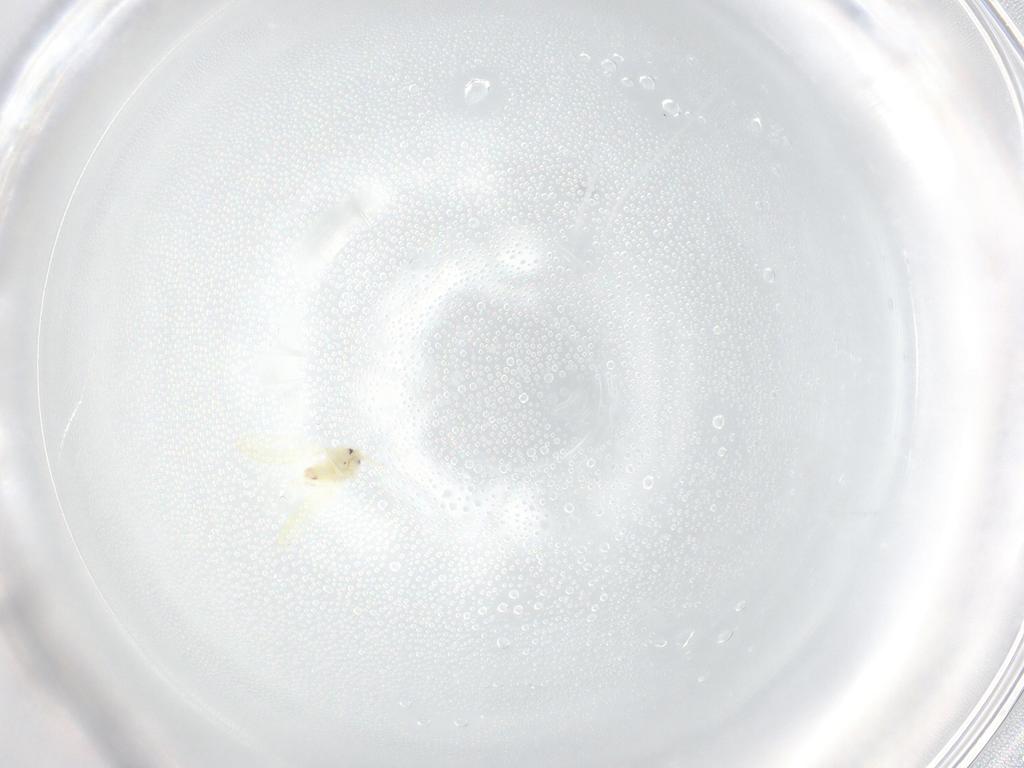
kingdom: Animalia
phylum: Arthropoda
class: Insecta
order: Hemiptera
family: Aleyrodidae
